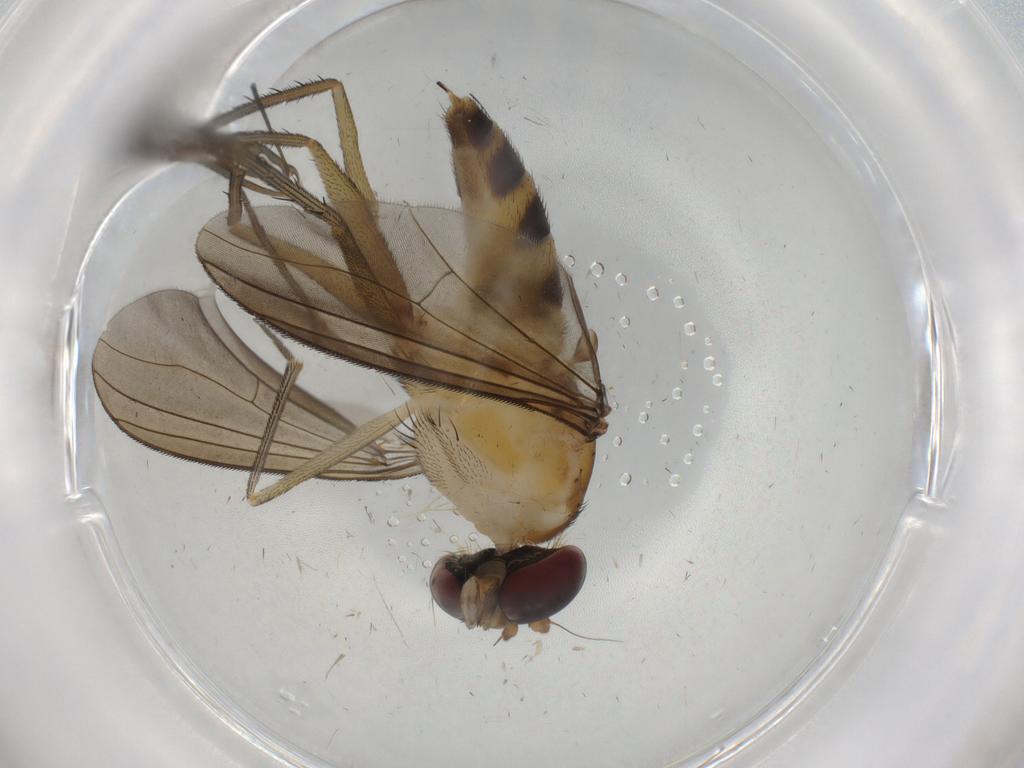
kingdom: Animalia
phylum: Arthropoda
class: Insecta
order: Diptera
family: Dolichopodidae
